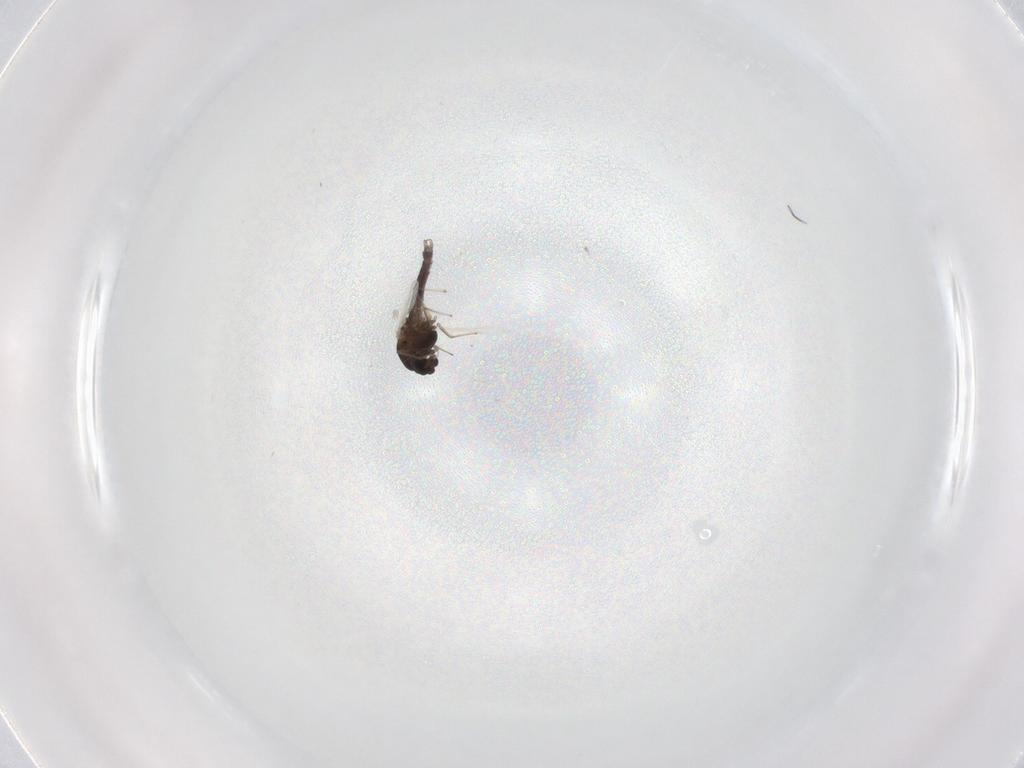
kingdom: Animalia
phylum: Arthropoda
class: Insecta
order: Diptera
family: Chironomidae
